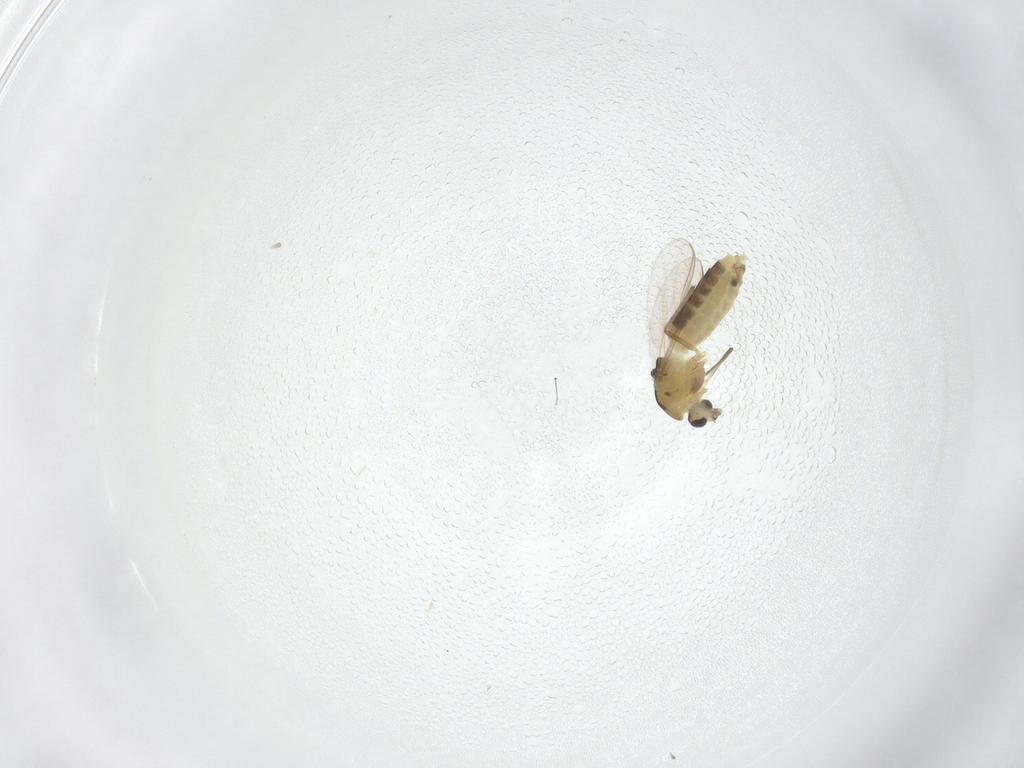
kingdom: Animalia
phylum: Arthropoda
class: Insecta
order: Diptera
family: Chironomidae
